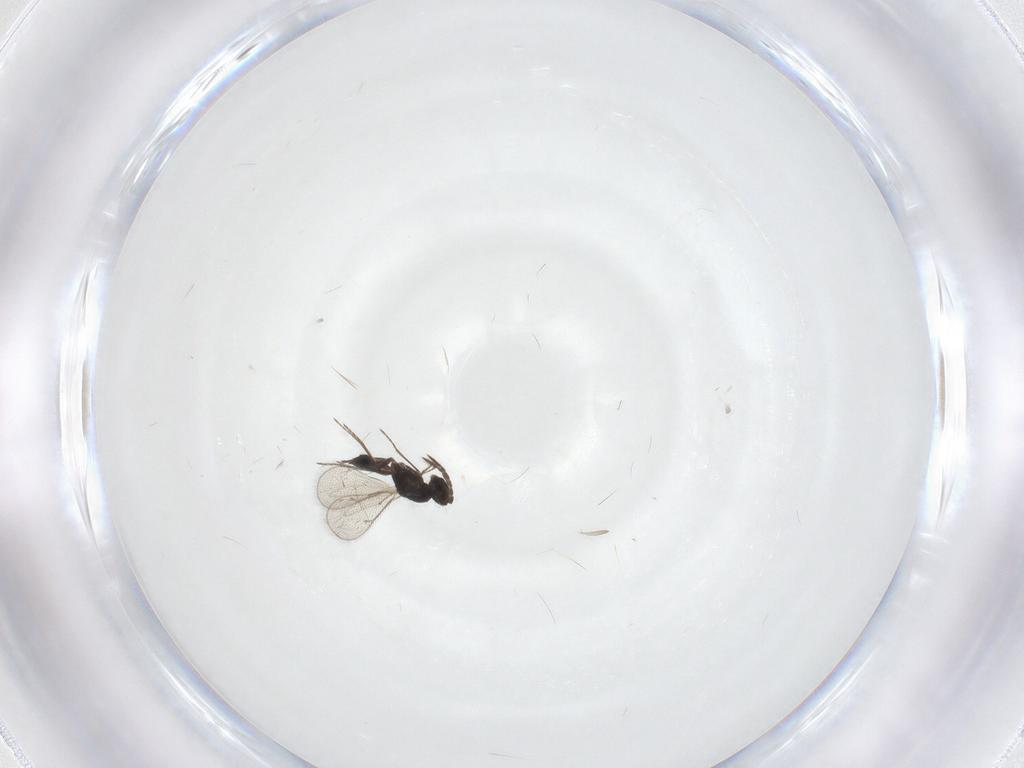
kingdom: Animalia
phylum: Arthropoda
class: Insecta
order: Hymenoptera
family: Eulophidae
